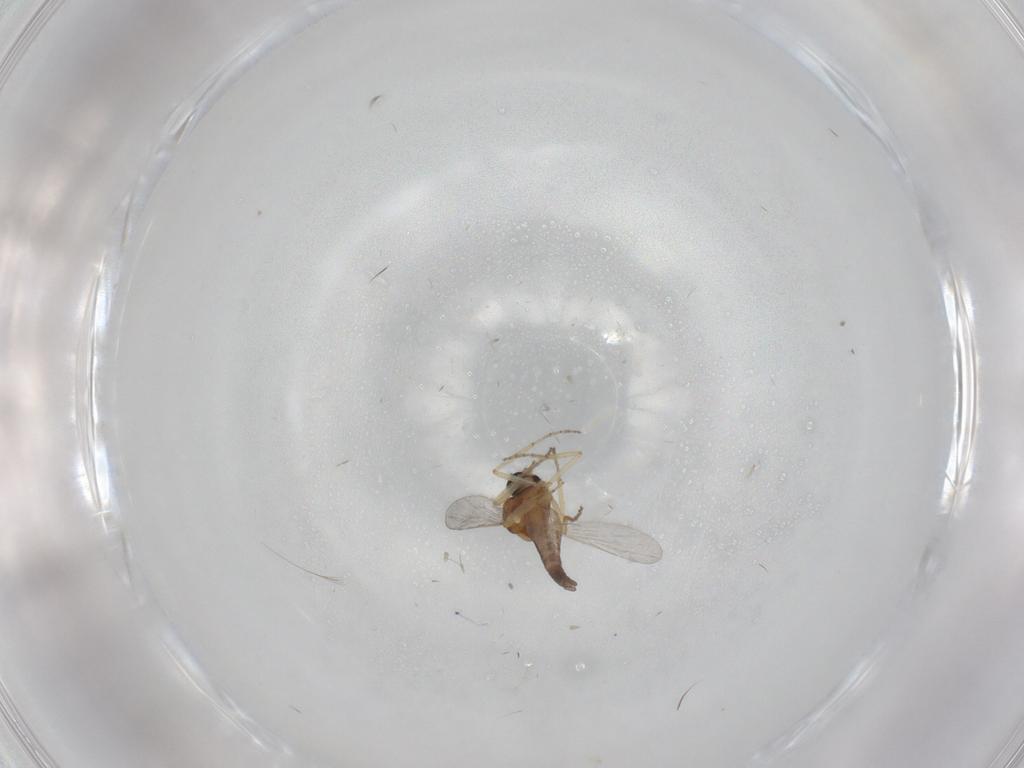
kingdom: Animalia
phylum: Arthropoda
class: Insecta
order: Diptera
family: Ceratopogonidae
